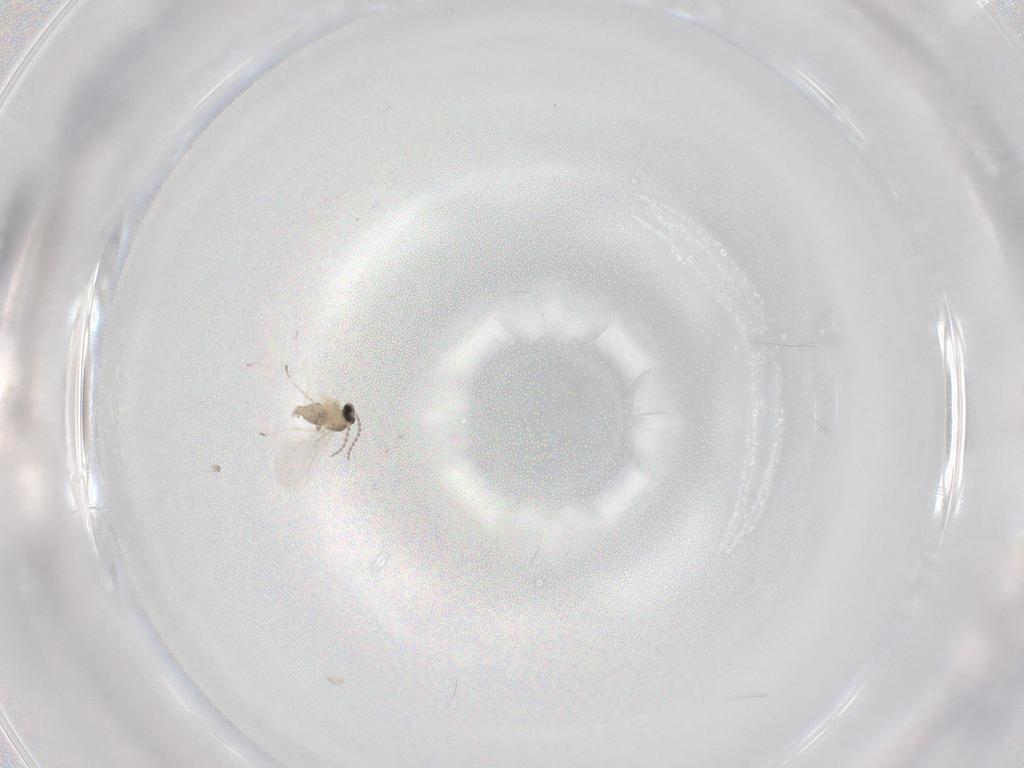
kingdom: Animalia
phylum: Arthropoda
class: Insecta
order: Diptera
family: Cecidomyiidae
